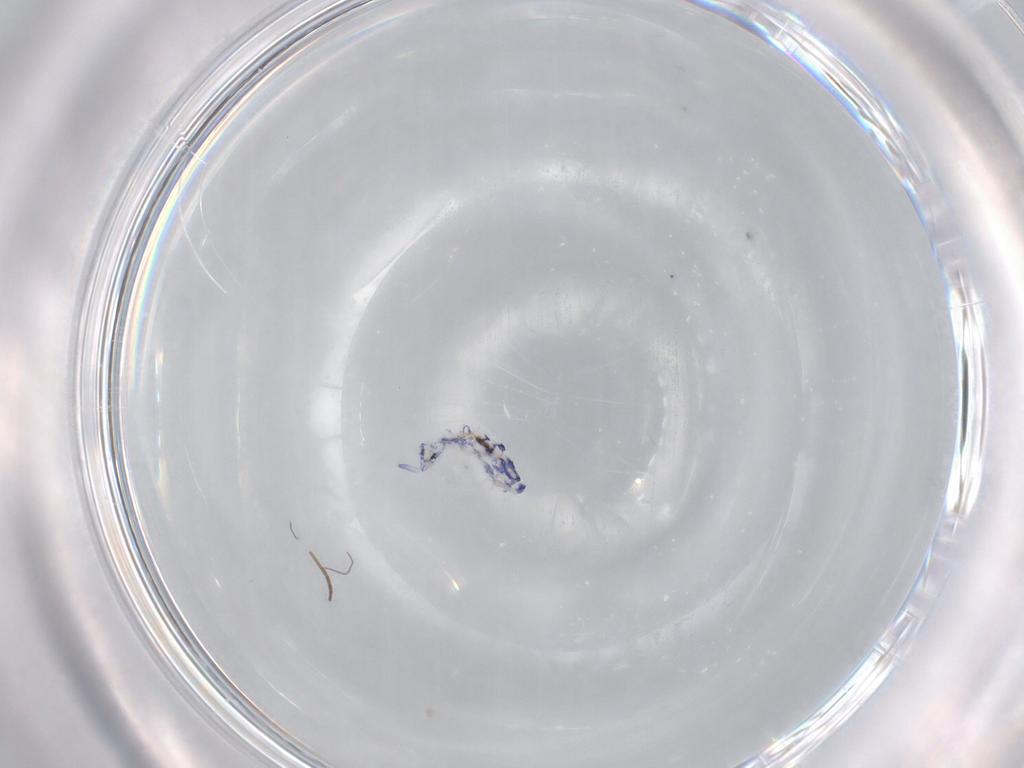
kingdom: Animalia
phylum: Arthropoda
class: Collembola
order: Entomobryomorpha
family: Entomobryidae
